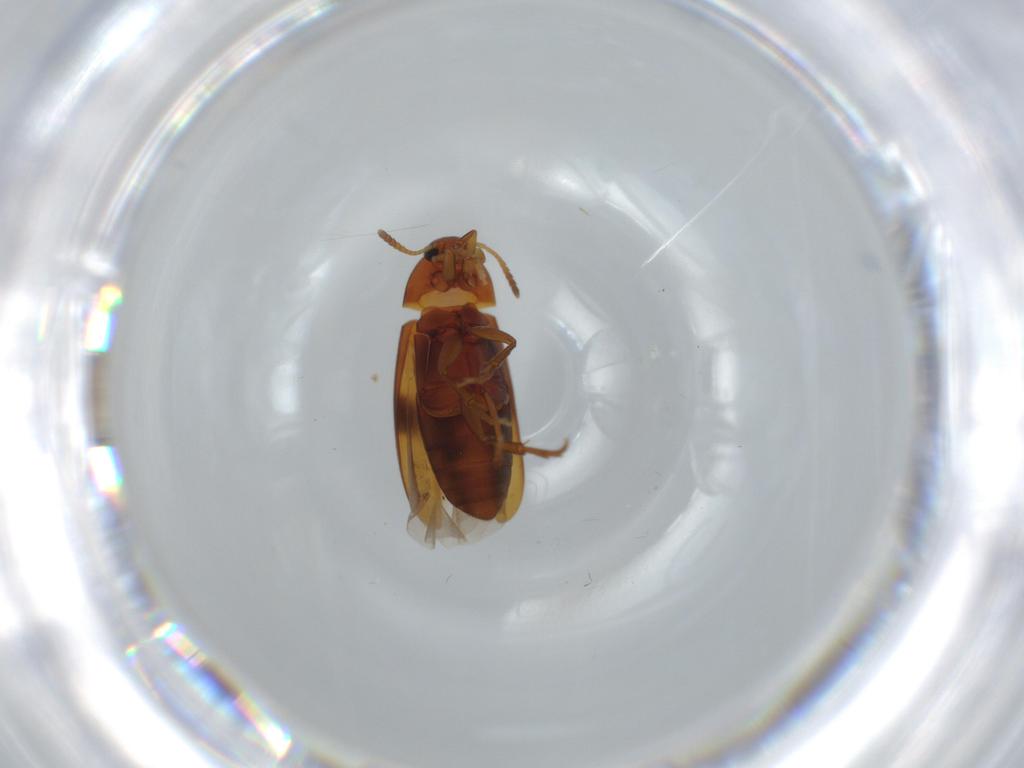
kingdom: Animalia
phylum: Arthropoda
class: Insecta
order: Coleoptera
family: Scraptiidae
